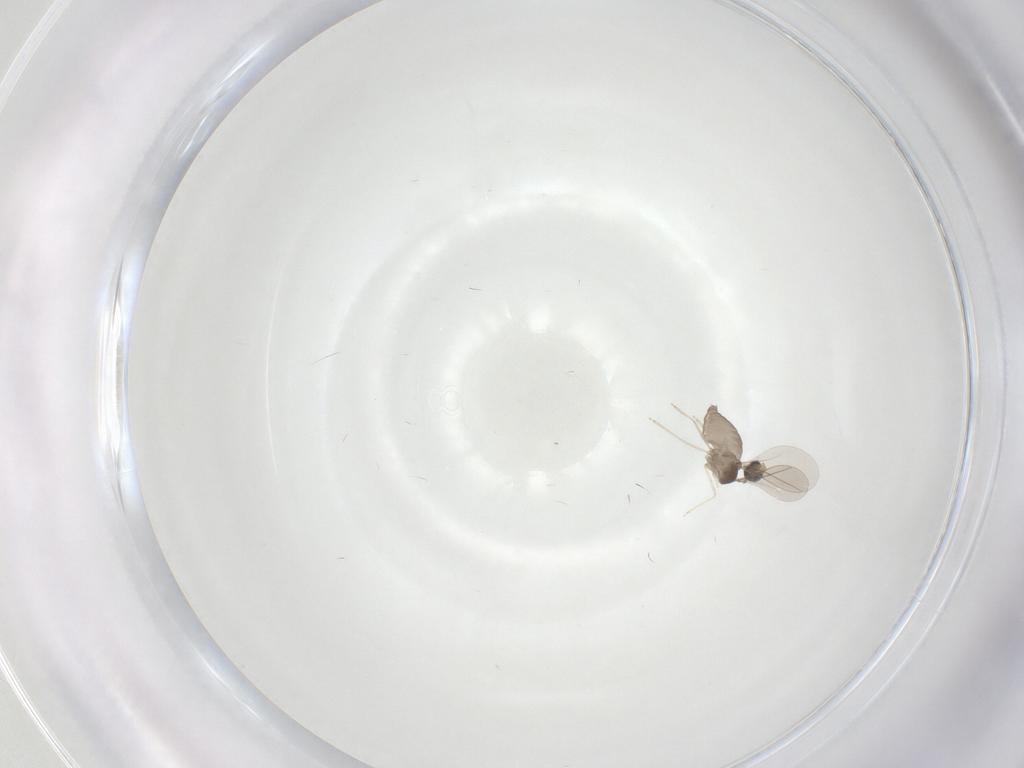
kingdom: Animalia
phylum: Arthropoda
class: Insecta
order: Diptera
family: Cecidomyiidae
